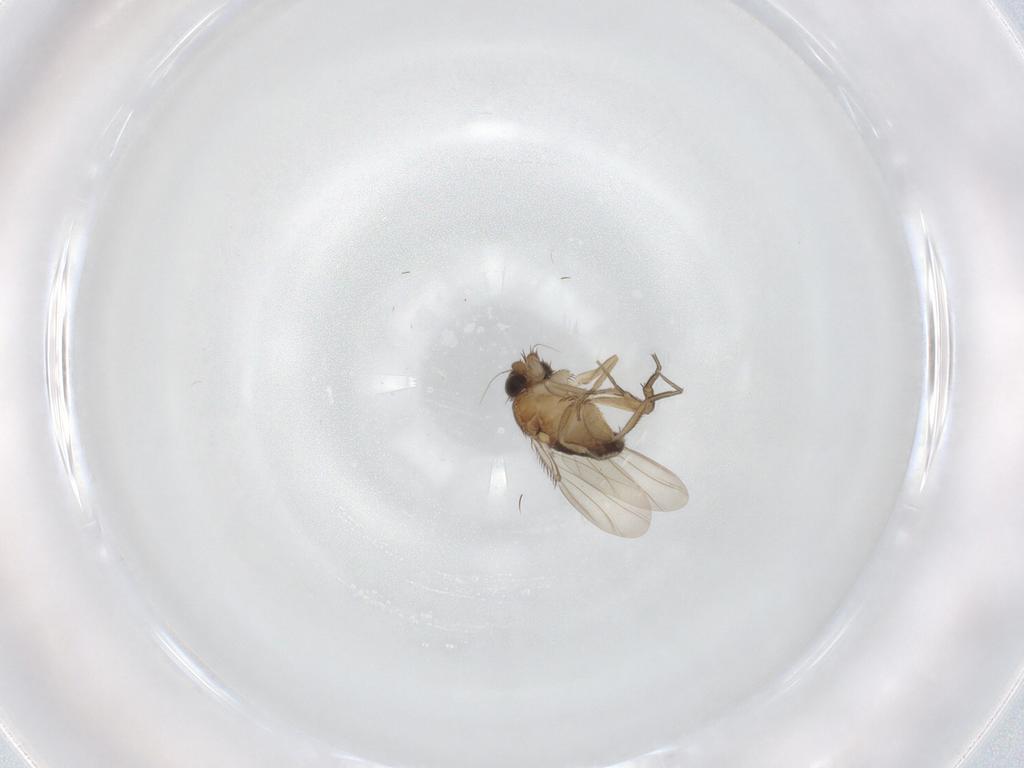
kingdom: Animalia
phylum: Arthropoda
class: Insecta
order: Diptera
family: Phoridae
